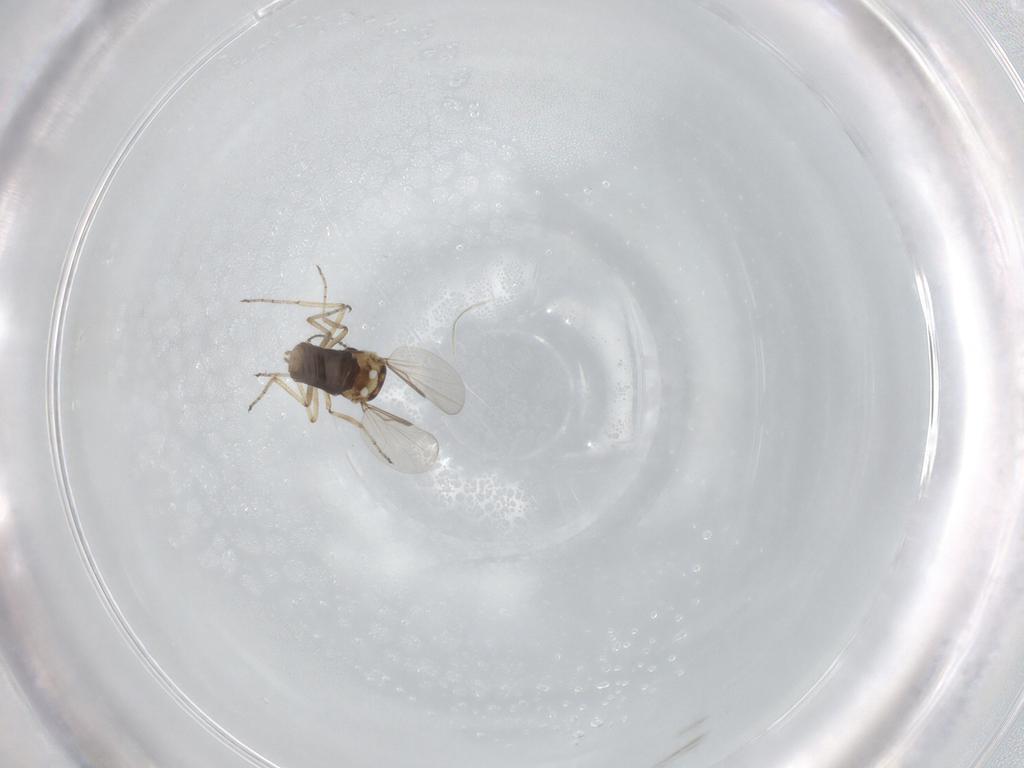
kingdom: Animalia
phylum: Arthropoda
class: Insecta
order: Diptera
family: Ceratopogonidae
